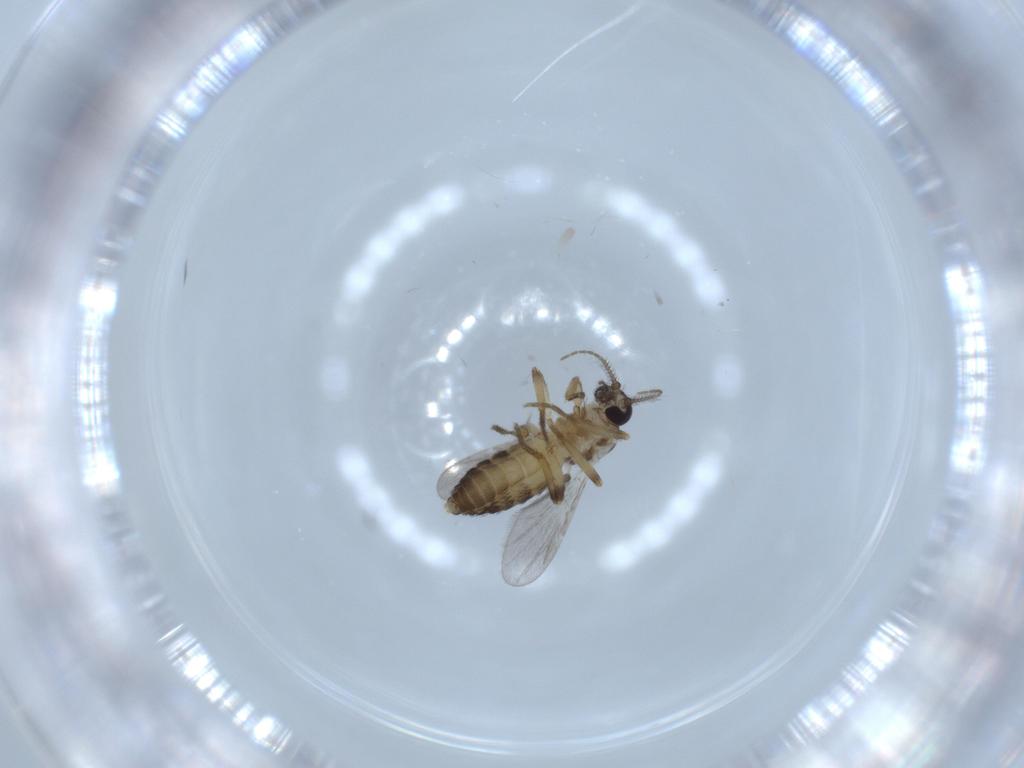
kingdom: Animalia
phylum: Arthropoda
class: Insecta
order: Diptera
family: Ceratopogonidae
